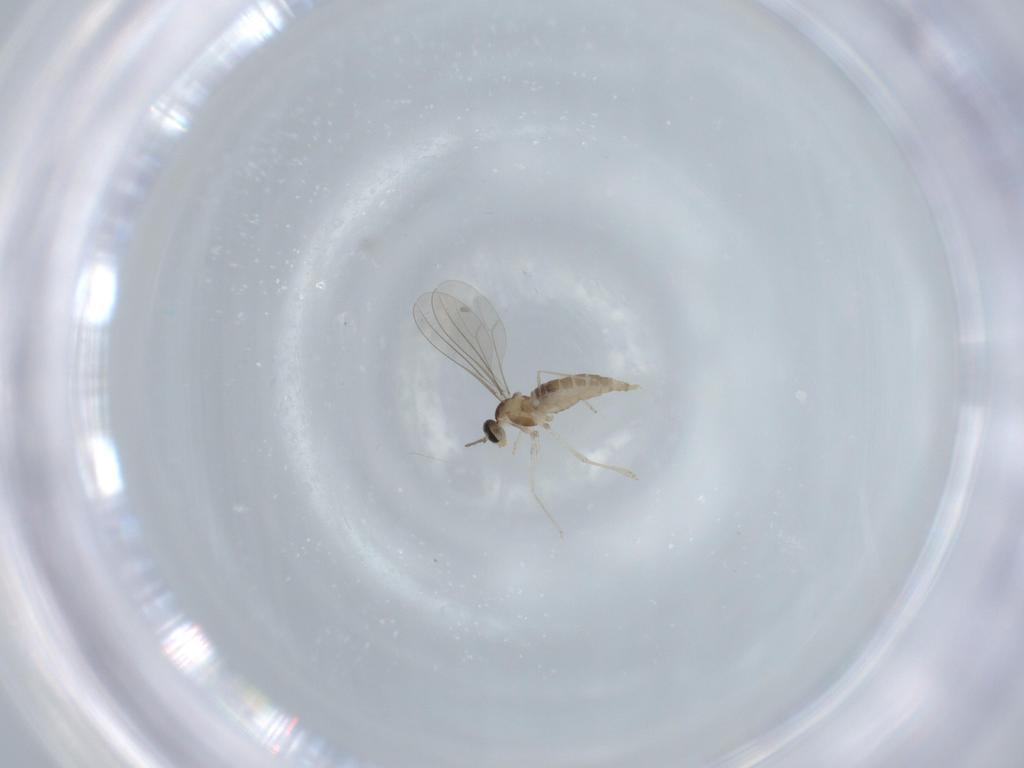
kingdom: Animalia
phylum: Arthropoda
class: Insecta
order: Diptera
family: Cecidomyiidae
